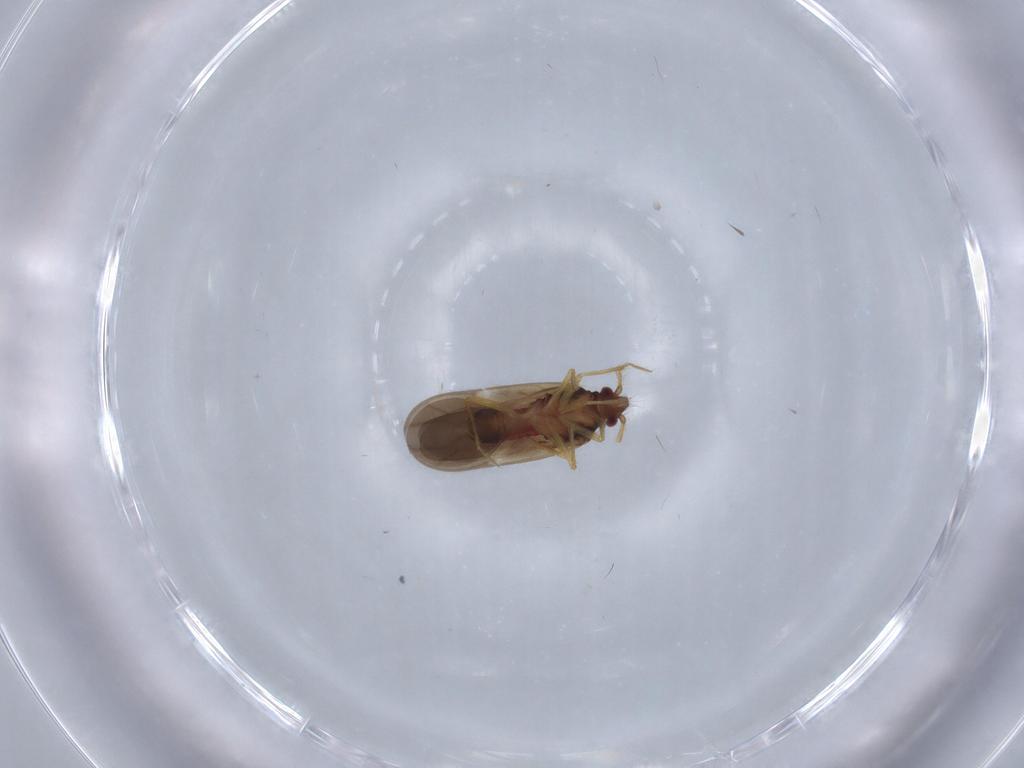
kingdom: Animalia
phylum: Arthropoda
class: Insecta
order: Hemiptera
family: Ceratocombidae
